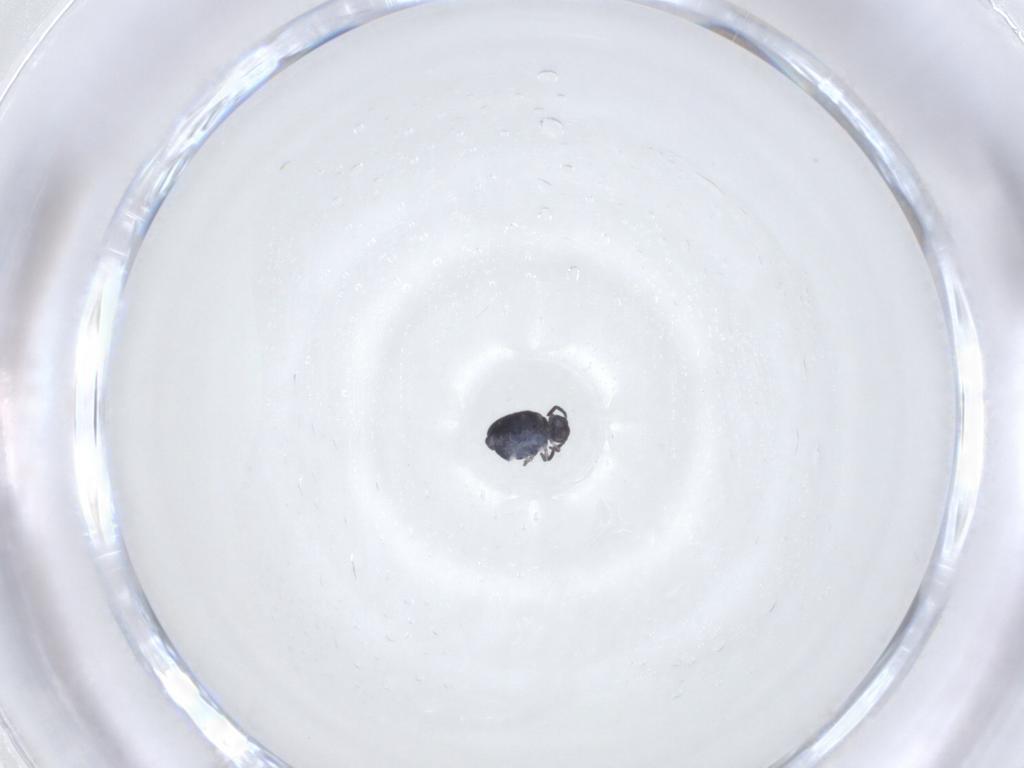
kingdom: Animalia
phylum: Arthropoda
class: Collembola
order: Symphypleona
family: Katiannidae
